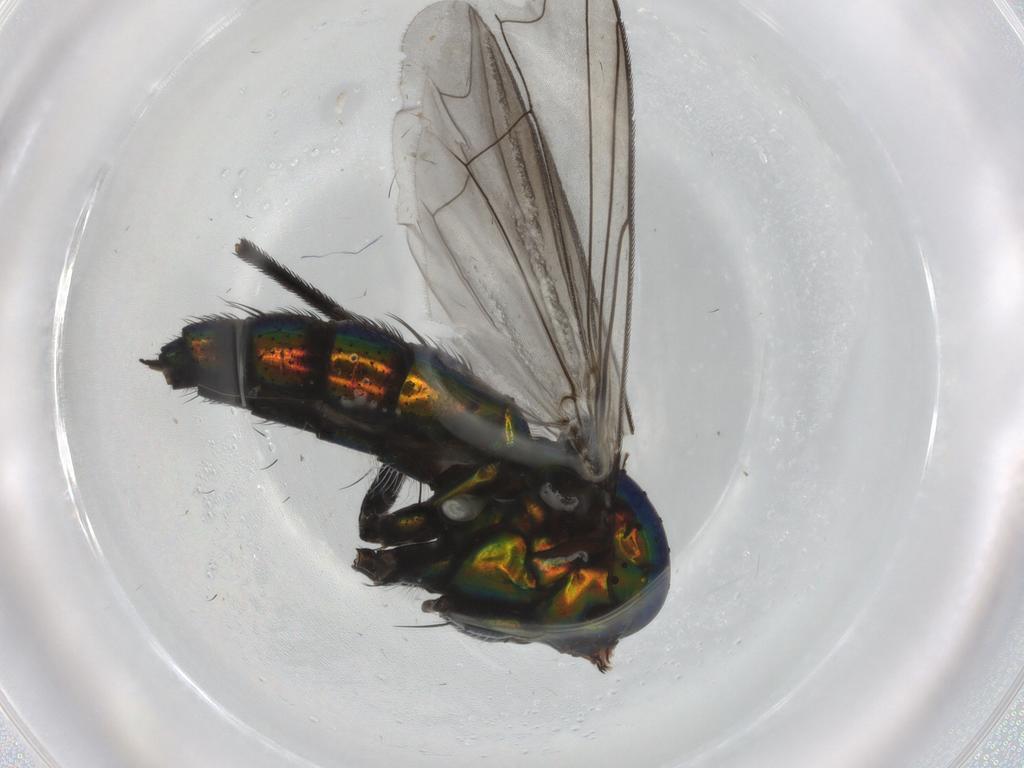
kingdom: Animalia
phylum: Arthropoda
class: Insecta
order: Diptera
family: Dolichopodidae
